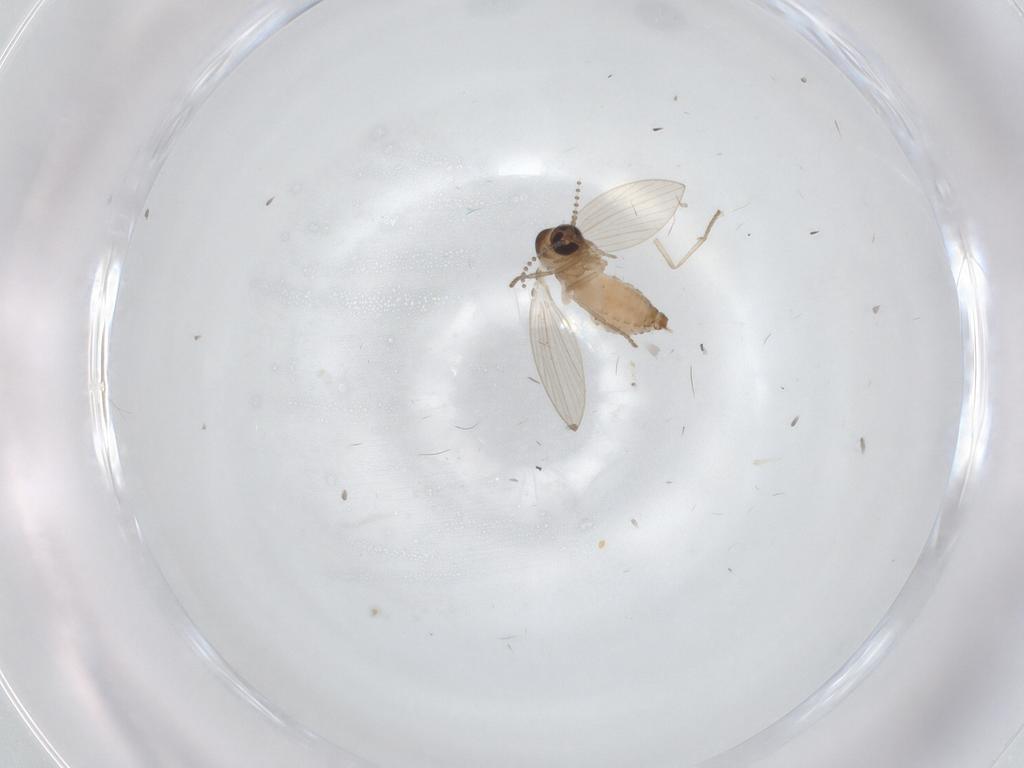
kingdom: Animalia
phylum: Arthropoda
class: Insecta
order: Diptera
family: Psychodidae
